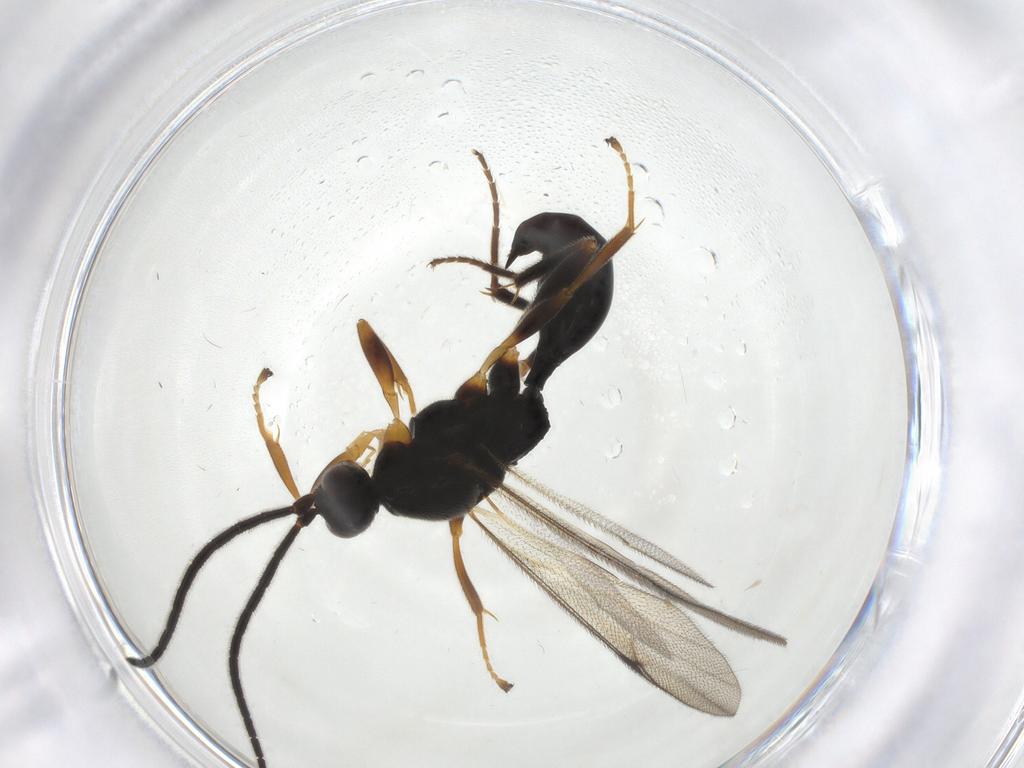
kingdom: Animalia
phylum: Arthropoda
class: Insecta
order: Hymenoptera
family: Proctotrupidae
